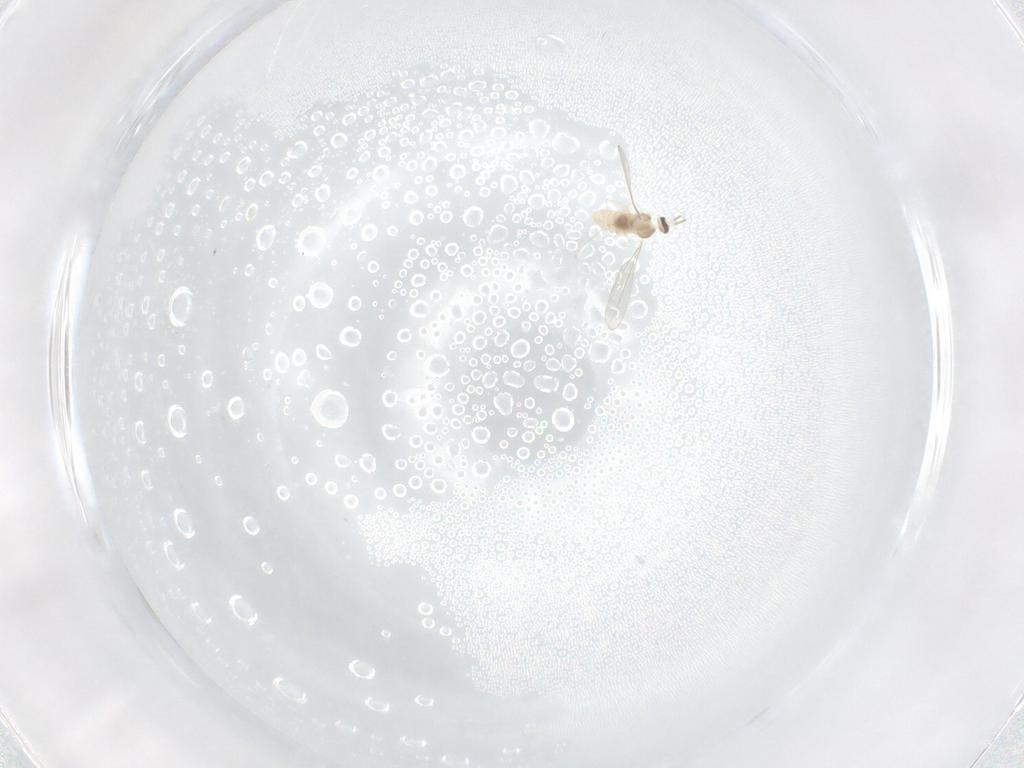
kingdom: Animalia
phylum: Arthropoda
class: Insecta
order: Diptera
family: Cecidomyiidae
